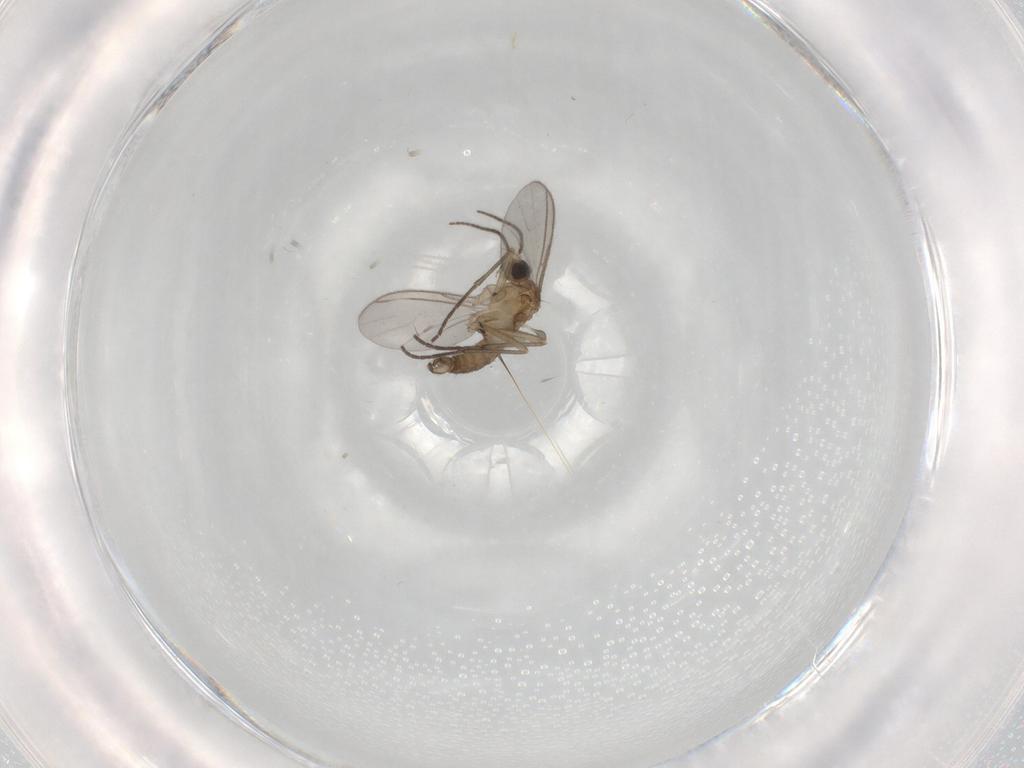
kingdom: Animalia
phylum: Arthropoda
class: Insecta
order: Diptera
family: Sciaridae
